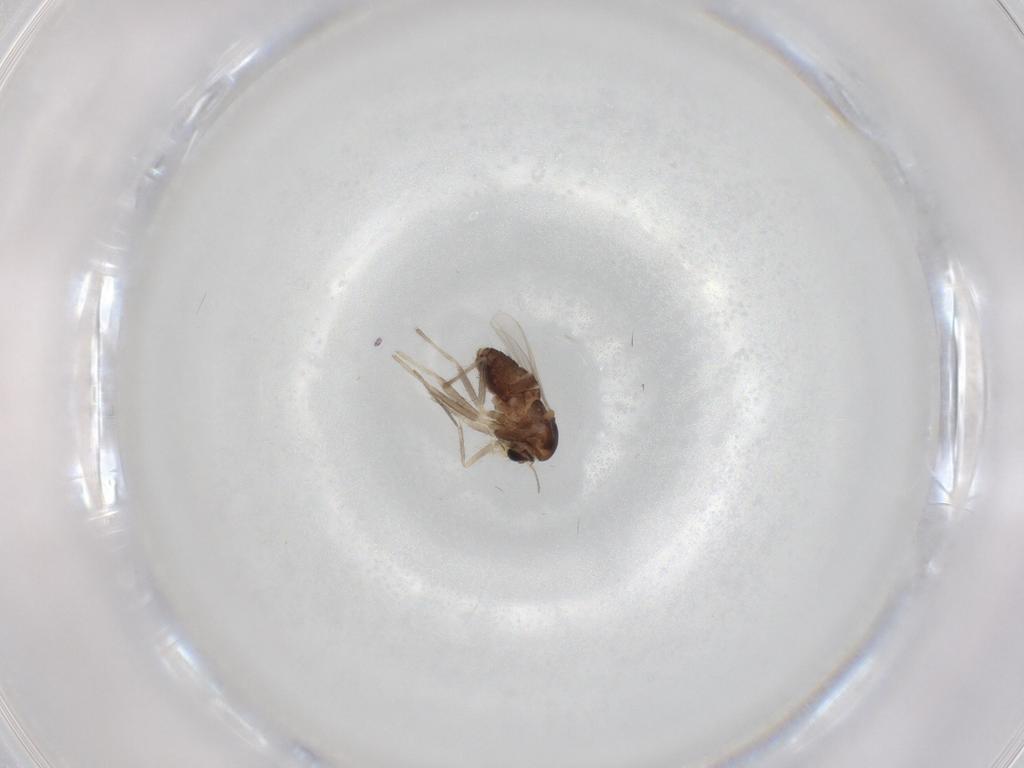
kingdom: Animalia
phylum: Arthropoda
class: Insecta
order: Diptera
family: Chironomidae
